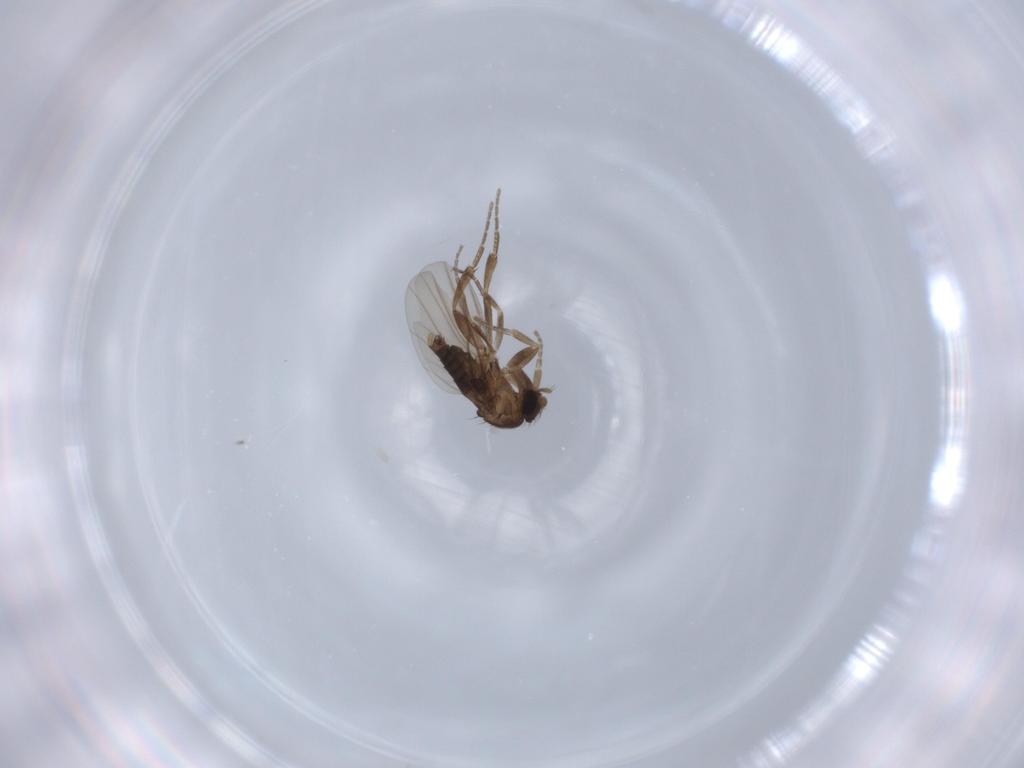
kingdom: Animalia
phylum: Arthropoda
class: Insecta
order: Diptera
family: Phoridae
